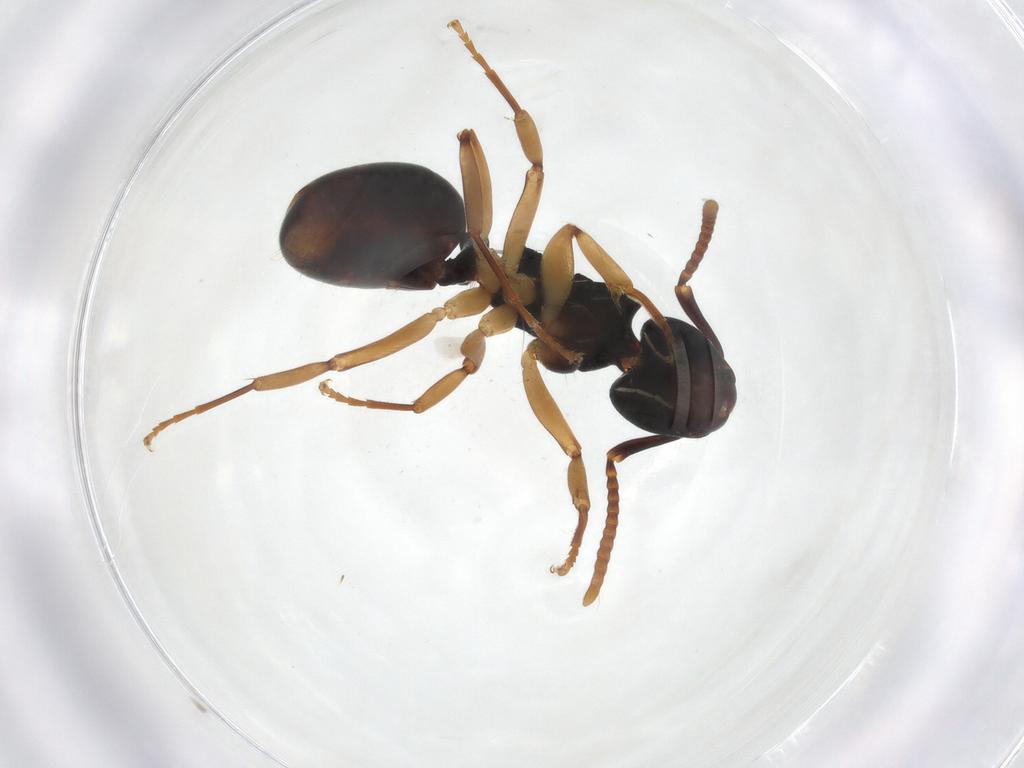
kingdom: Animalia
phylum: Arthropoda
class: Insecta
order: Hymenoptera
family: Formicidae
